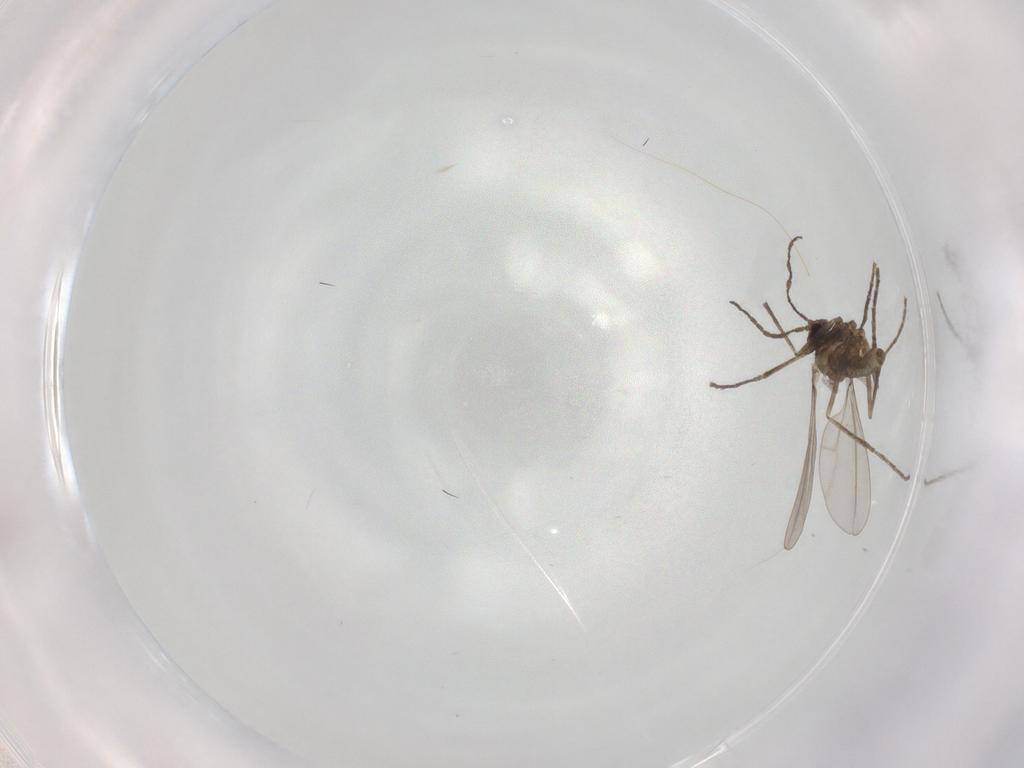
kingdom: Animalia
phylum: Arthropoda
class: Insecta
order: Diptera
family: Cecidomyiidae
